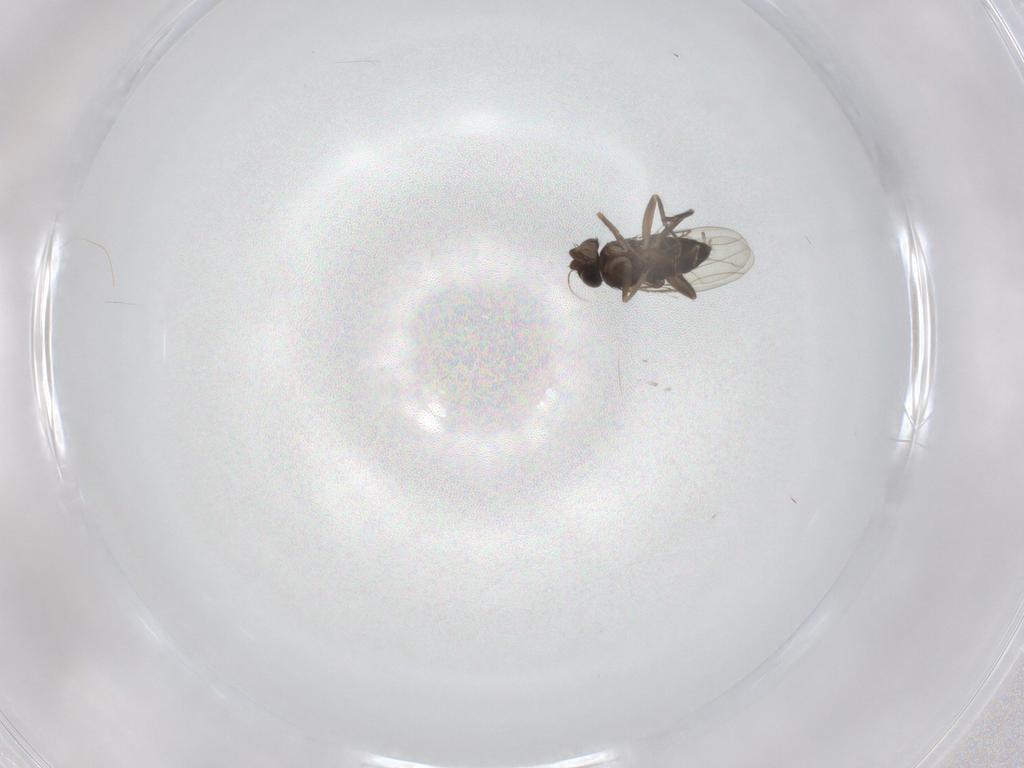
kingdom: Animalia
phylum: Arthropoda
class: Insecta
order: Diptera
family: Phoridae
